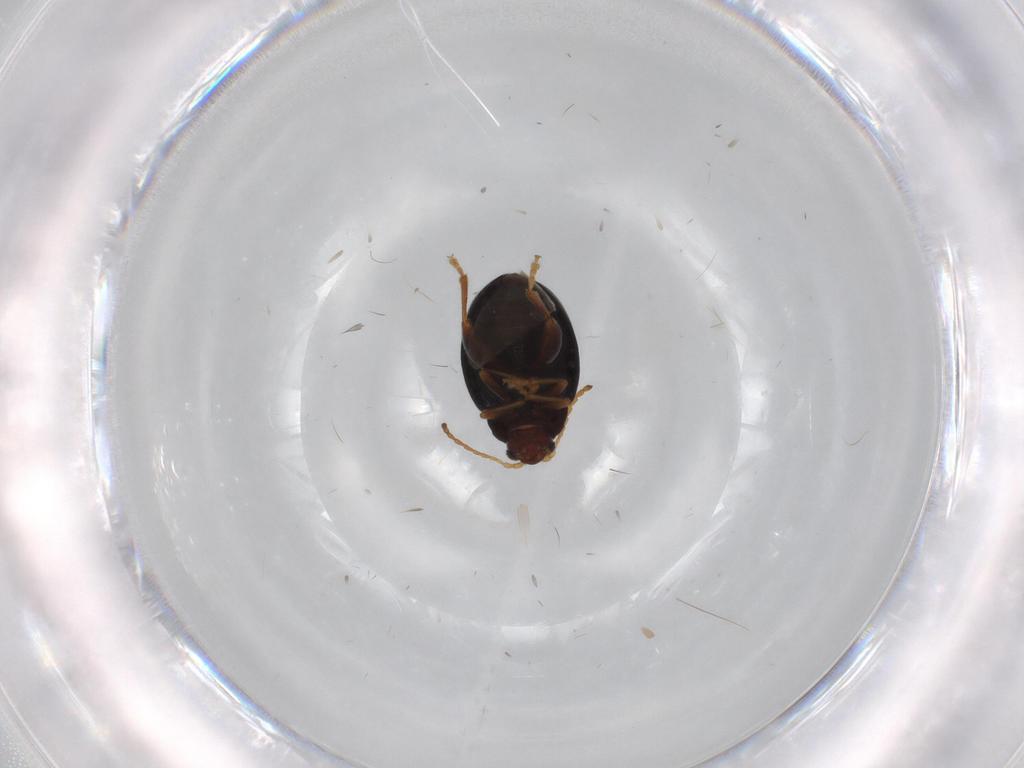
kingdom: Animalia
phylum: Arthropoda
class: Insecta
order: Coleoptera
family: Chrysomelidae
